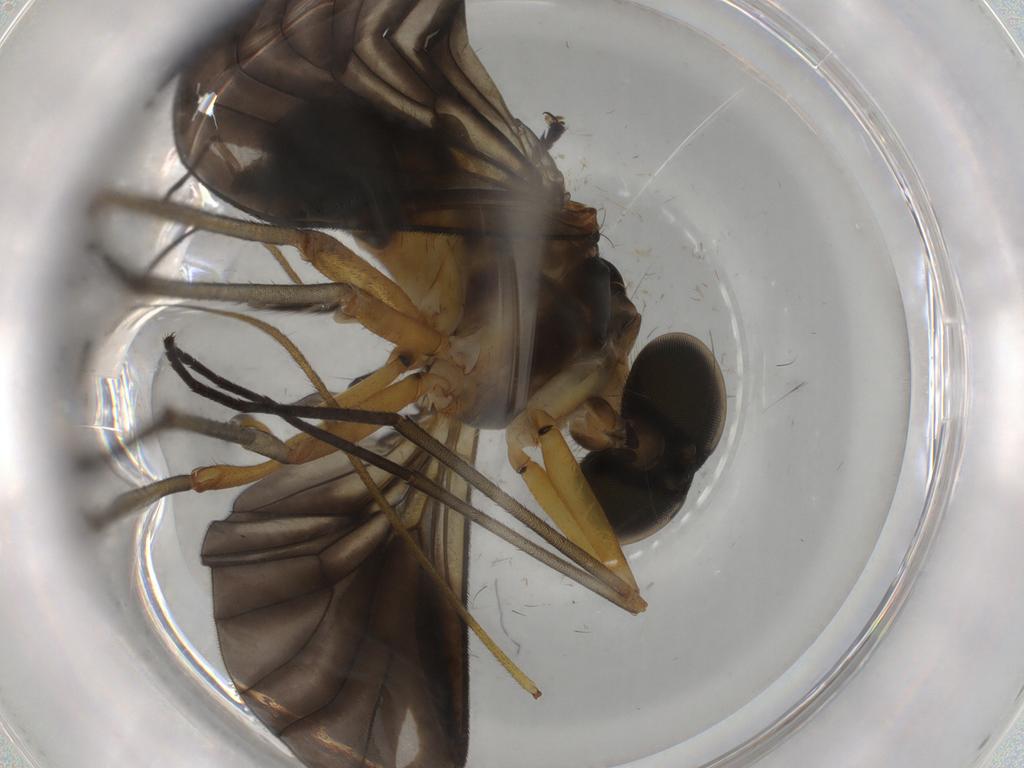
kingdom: Animalia
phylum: Arthropoda
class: Insecta
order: Diptera
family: Cecidomyiidae
